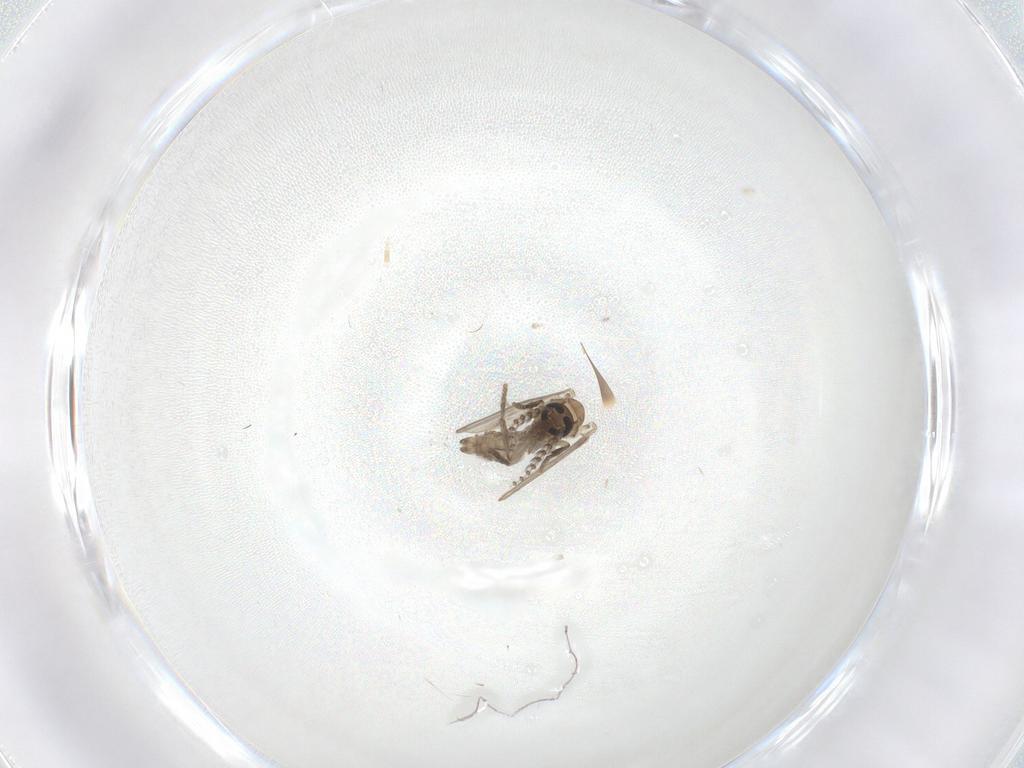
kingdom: Animalia
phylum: Arthropoda
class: Insecta
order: Diptera
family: Psychodidae
